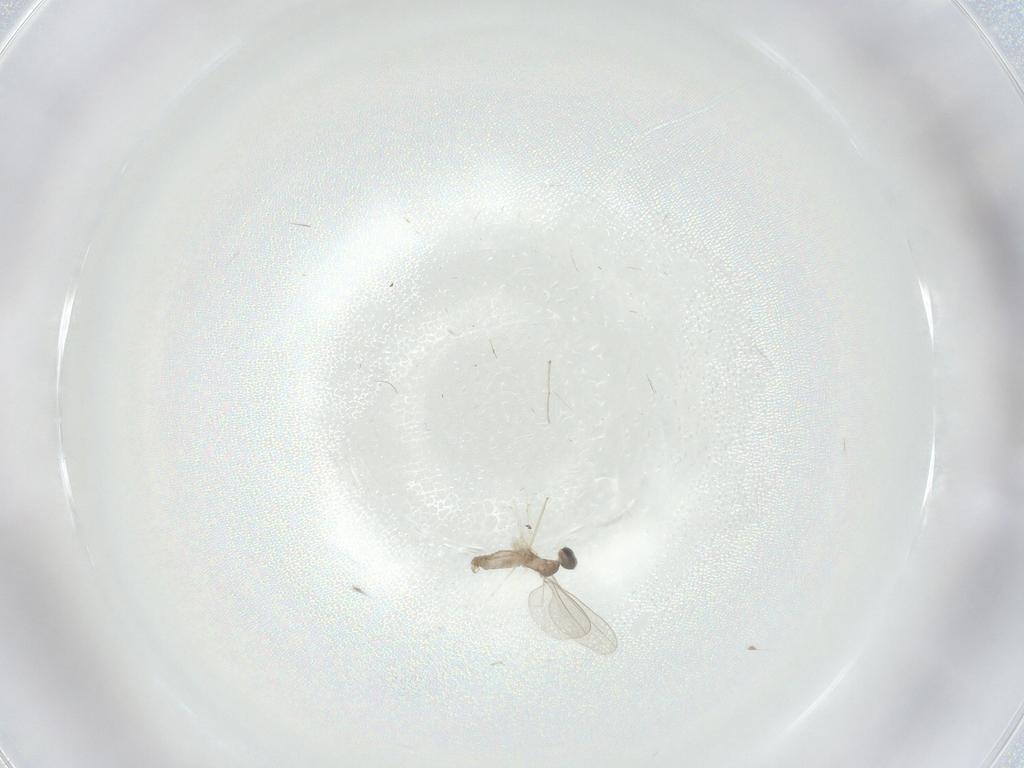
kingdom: Animalia
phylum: Arthropoda
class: Insecta
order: Diptera
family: Cecidomyiidae
